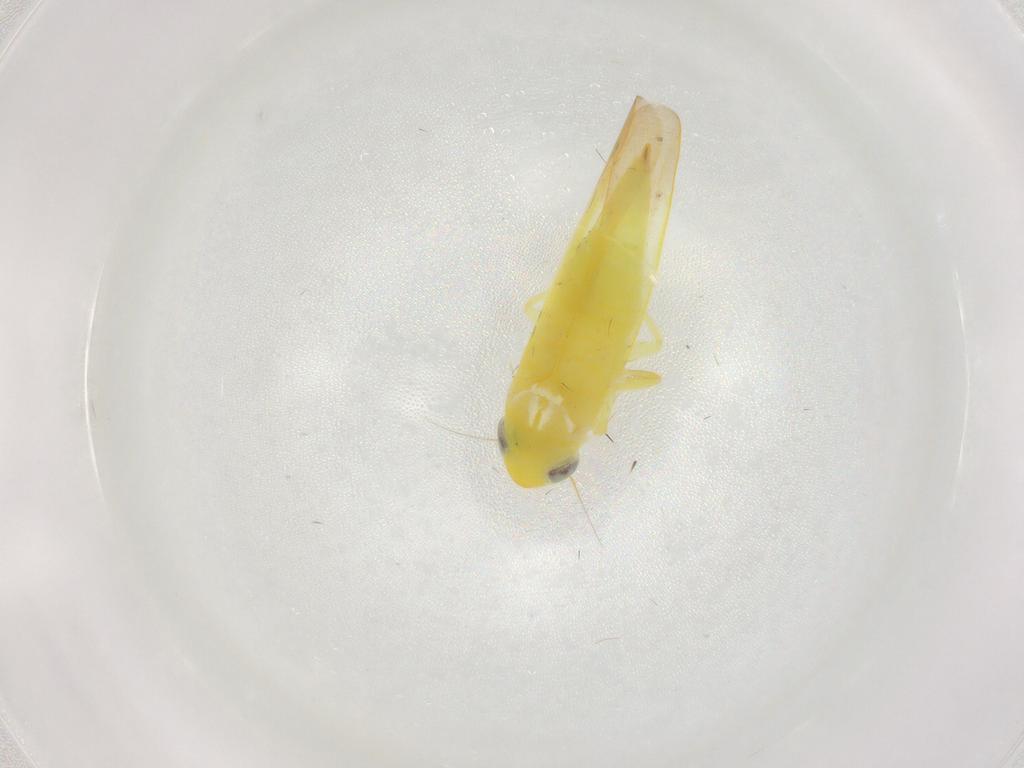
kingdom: Animalia
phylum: Arthropoda
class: Insecta
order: Hemiptera
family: Cicadellidae
